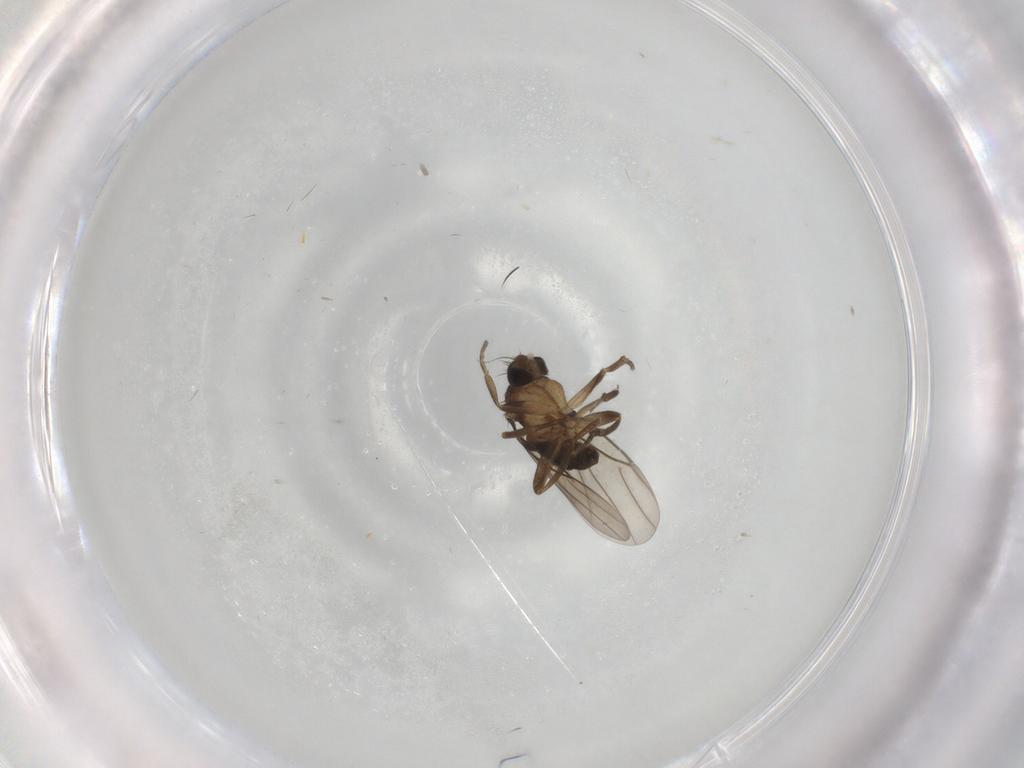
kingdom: Animalia
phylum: Arthropoda
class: Insecta
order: Diptera
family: Phoridae
